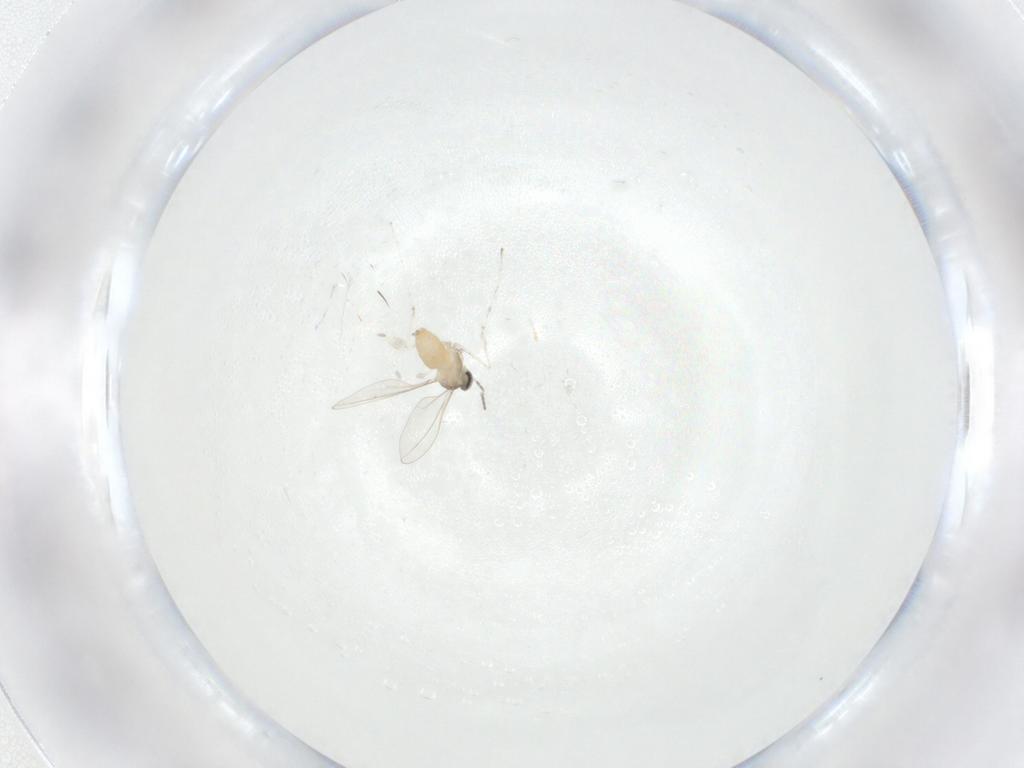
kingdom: Animalia
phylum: Arthropoda
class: Insecta
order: Diptera
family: Cecidomyiidae
